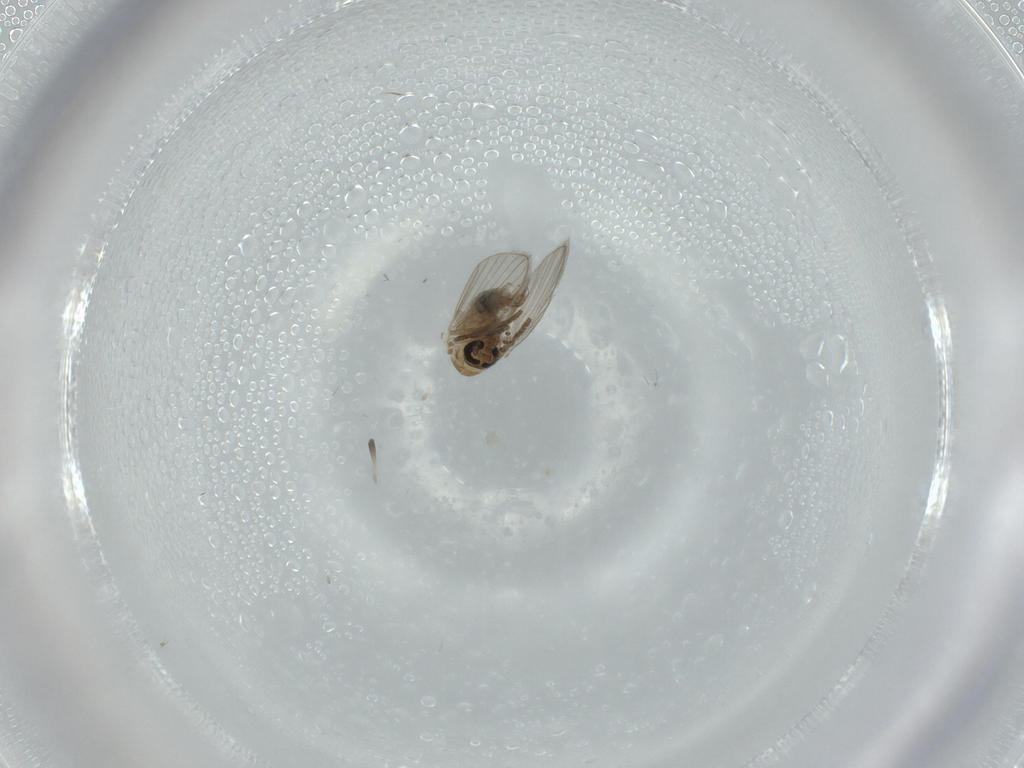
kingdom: Animalia
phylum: Arthropoda
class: Insecta
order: Diptera
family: Psychodidae
